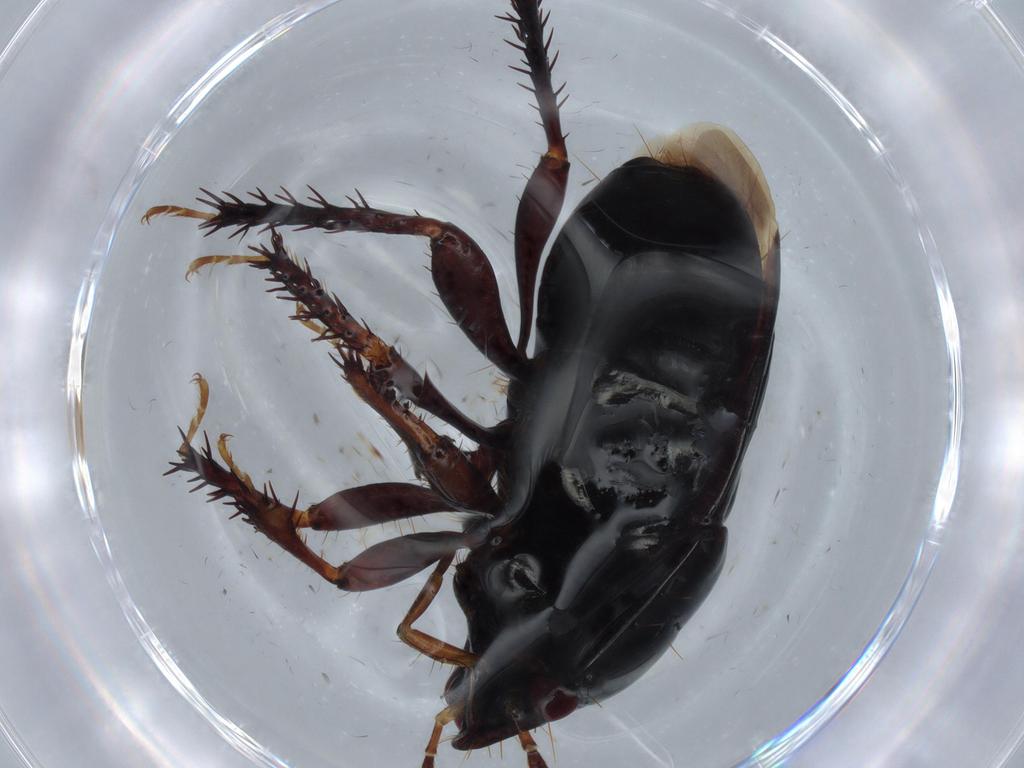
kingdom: Animalia
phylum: Arthropoda
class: Insecta
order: Hemiptera
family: Cydnidae
